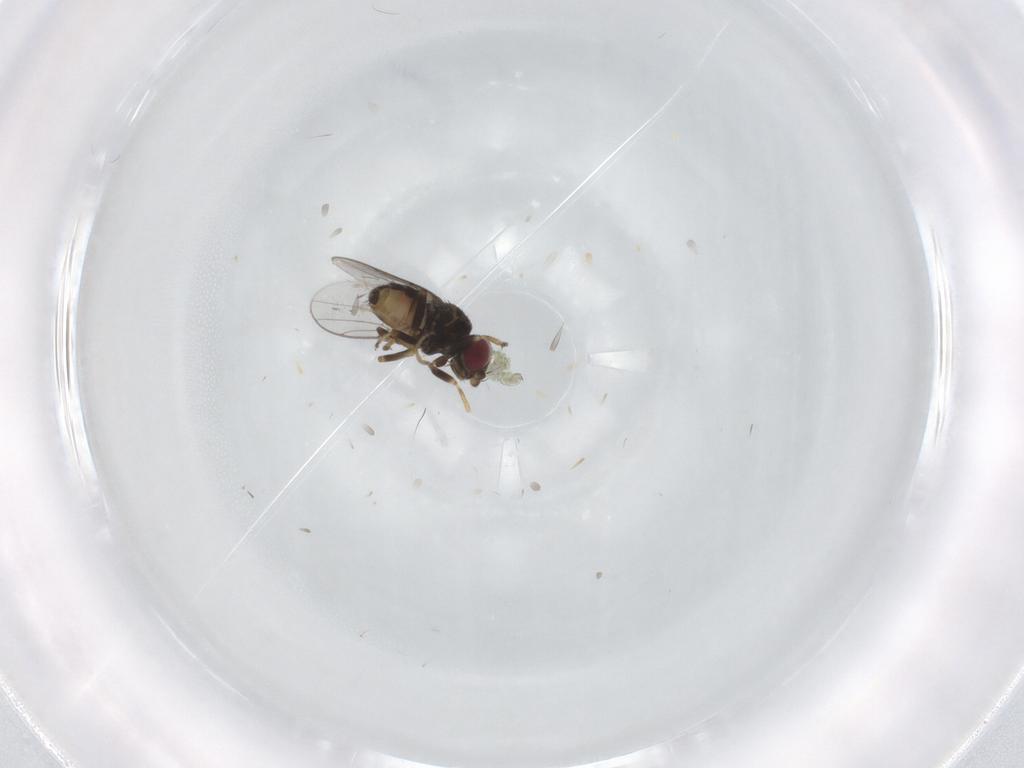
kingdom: Animalia
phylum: Arthropoda
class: Insecta
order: Diptera
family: Chloropidae
